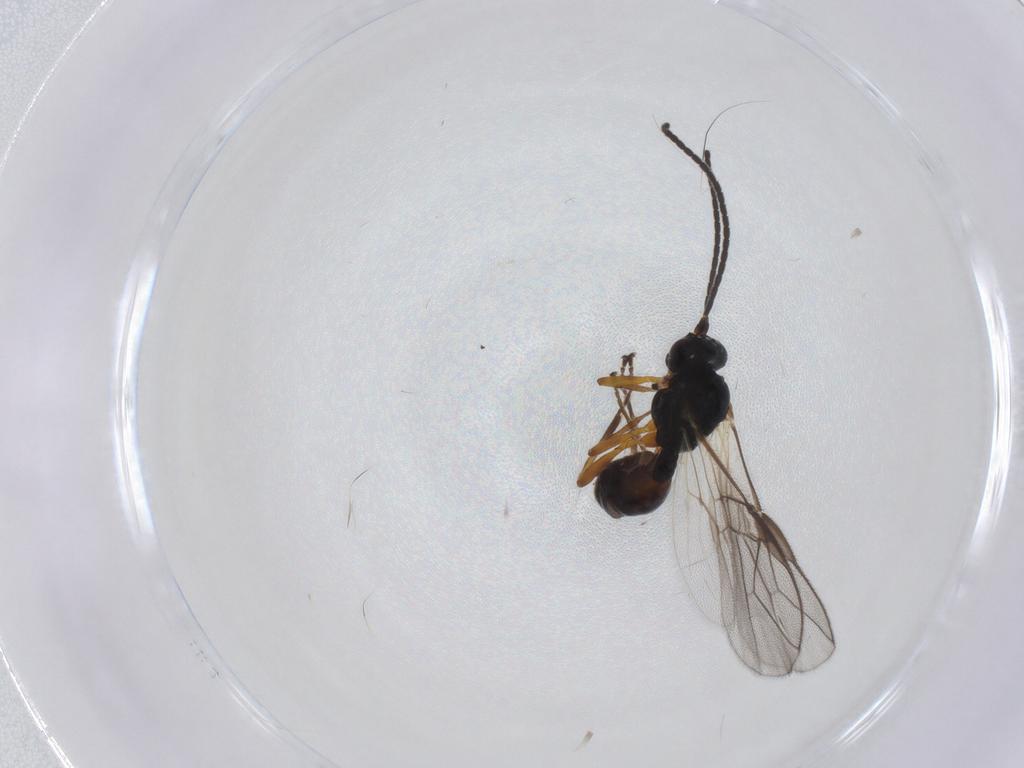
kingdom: Animalia
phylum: Arthropoda
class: Insecta
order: Hymenoptera
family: Braconidae
